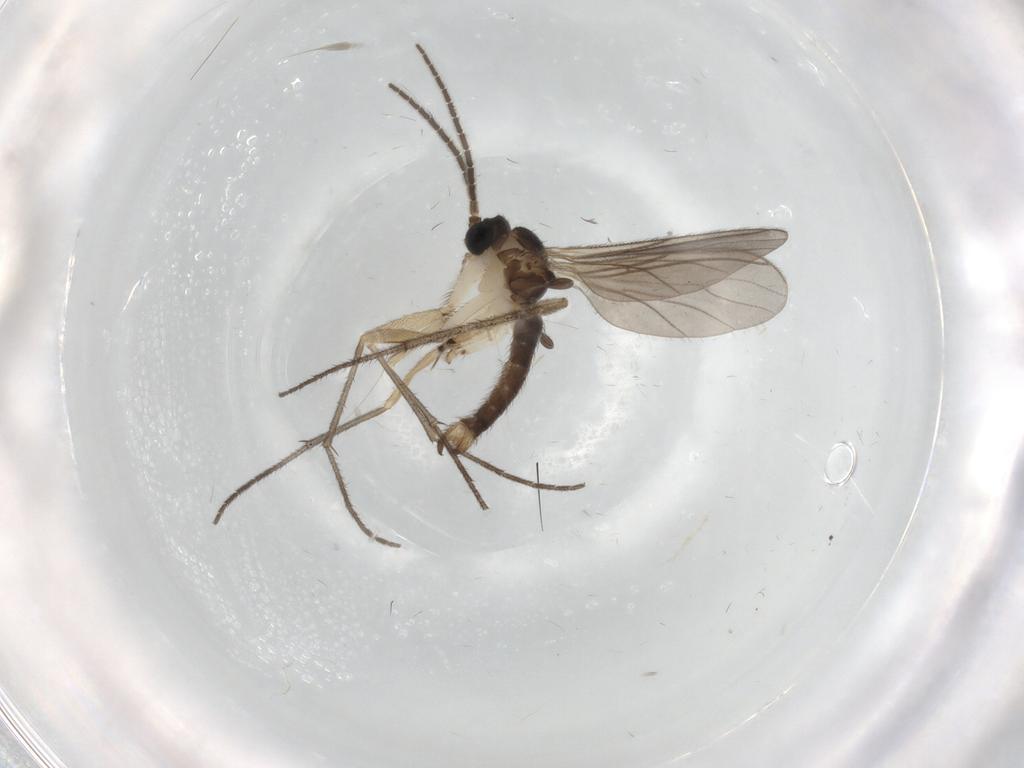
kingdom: Animalia
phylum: Arthropoda
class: Insecta
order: Diptera
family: Sciaridae
